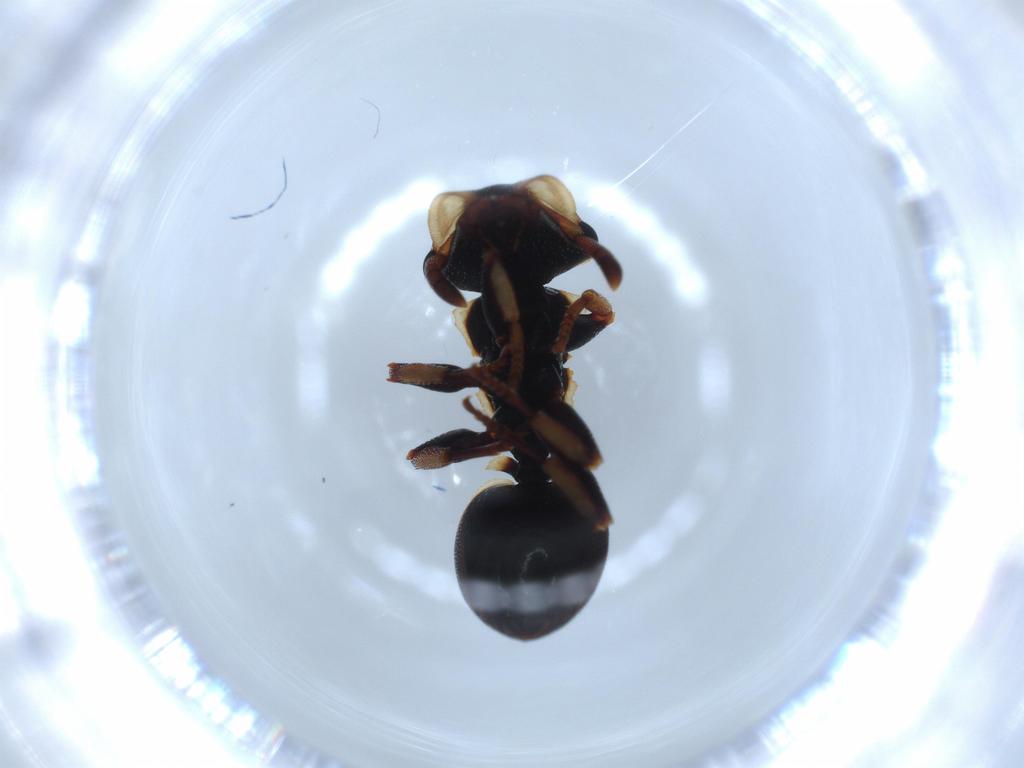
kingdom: Animalia
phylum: Arthropoda
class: Insecta
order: Hymenoptera
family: Formicidae
